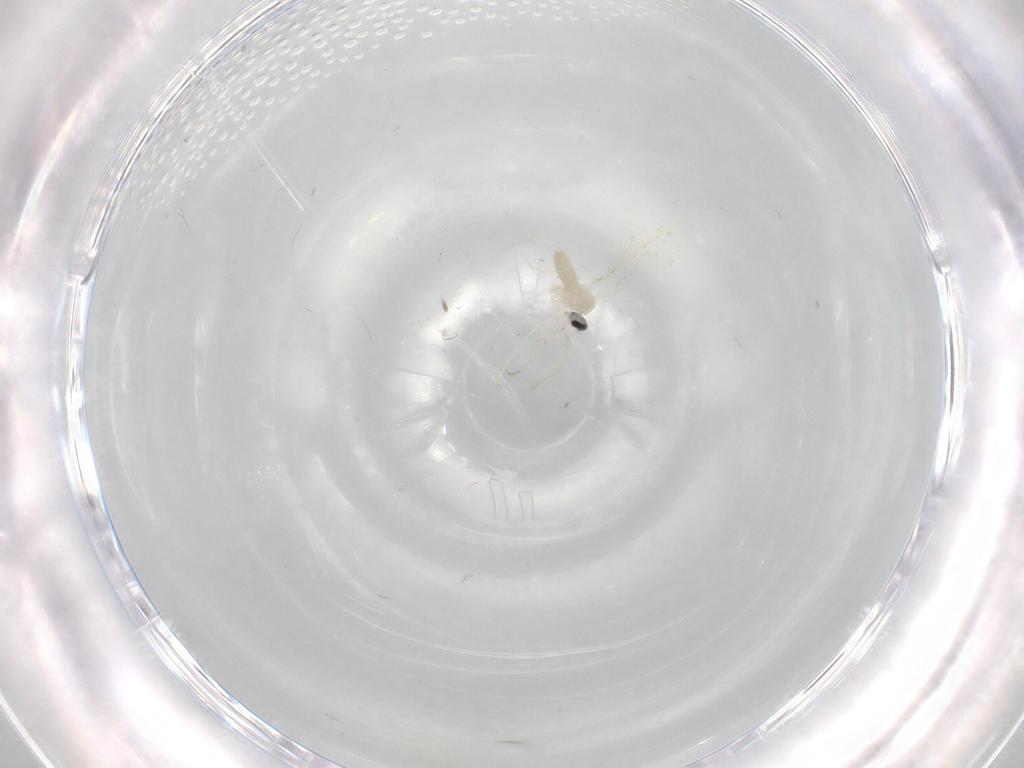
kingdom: Animalia
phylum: Arthropoda
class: Insecta
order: Diptera
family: Cecidomyiidae
